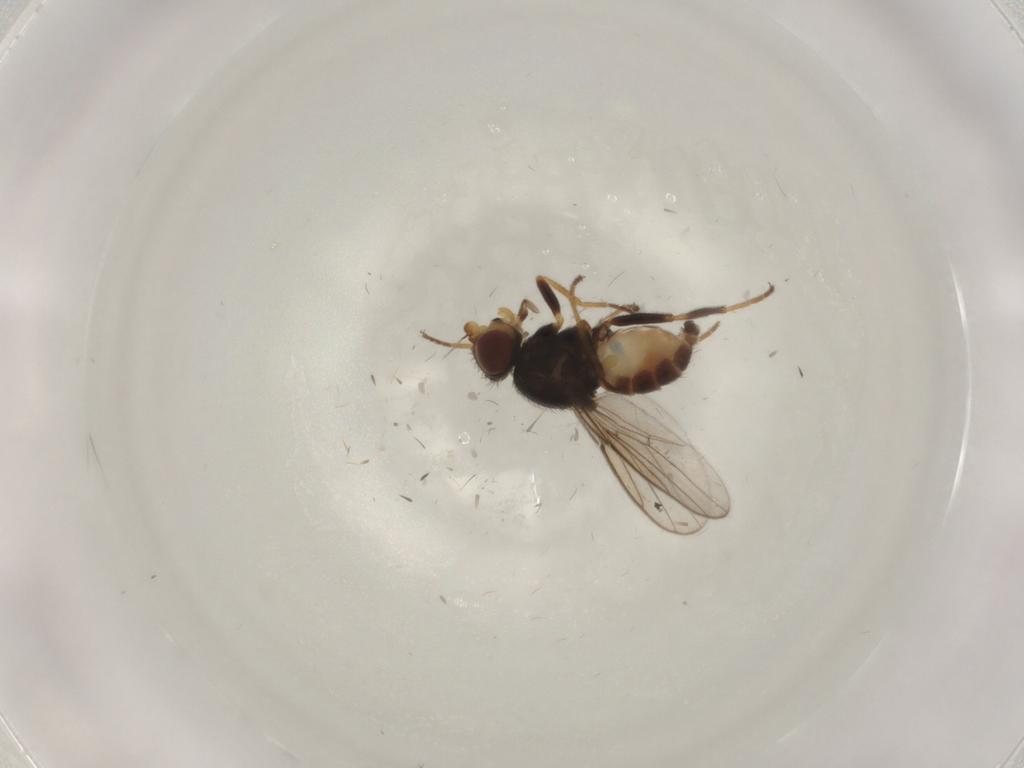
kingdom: Animalia
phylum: Arthropoda
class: Insecta
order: Diptera
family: Chloropidae
